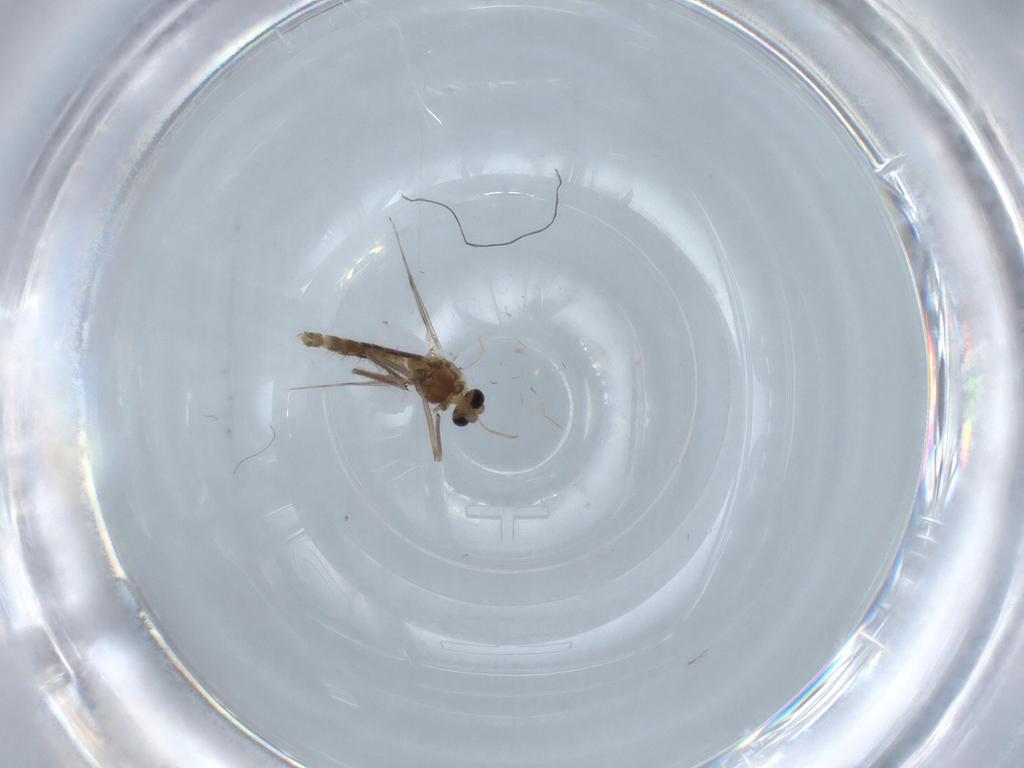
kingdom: Animalia
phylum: Arthropoda
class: Insecta
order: Diptera
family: Chironomidae
